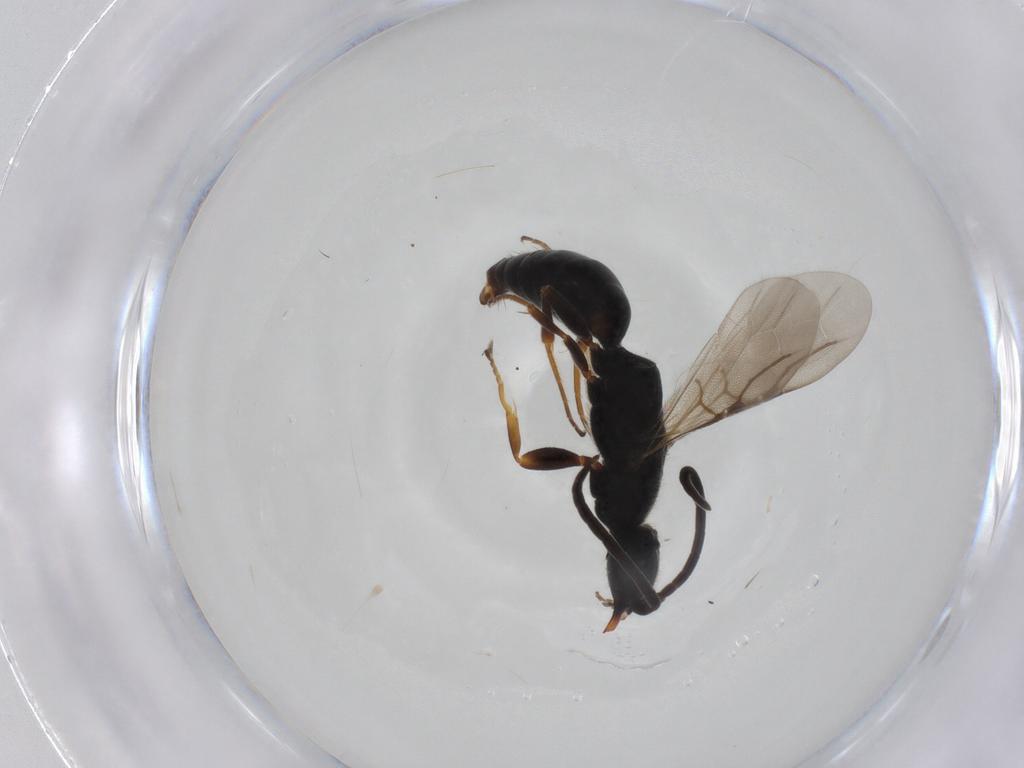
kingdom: Animalia
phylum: Arthropoda
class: Insecta
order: Hymenoptera
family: Bethylidae
